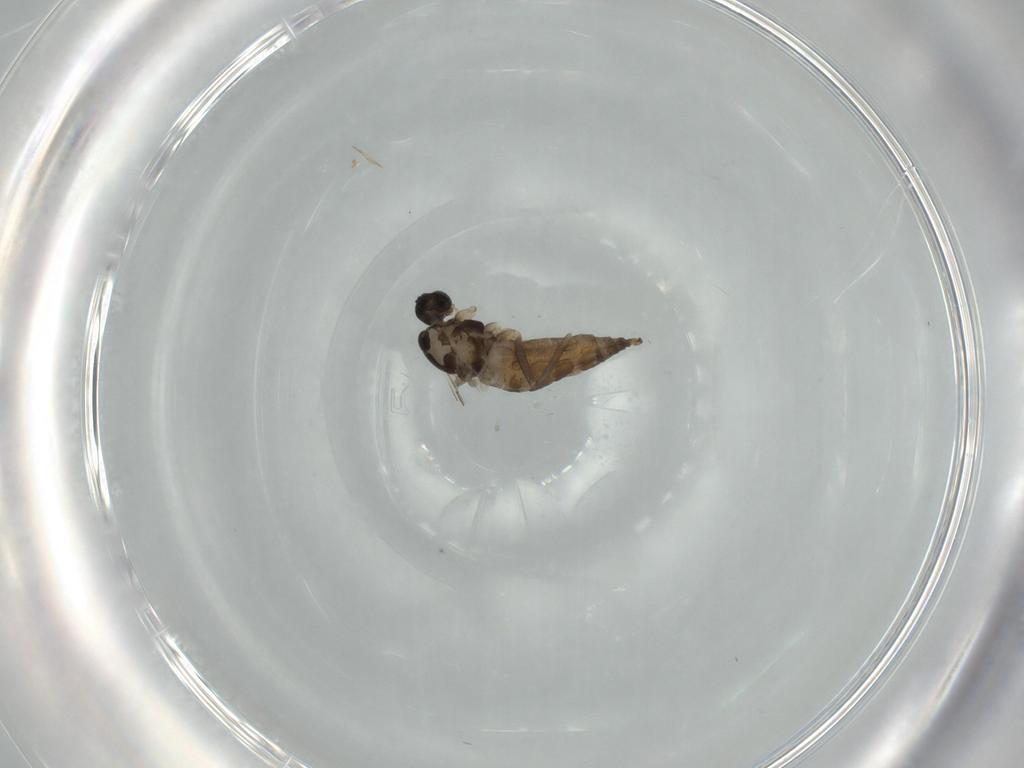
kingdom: Animalia
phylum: Arthropoda
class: Insecta
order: Diptera
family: Cecidomyiidae
